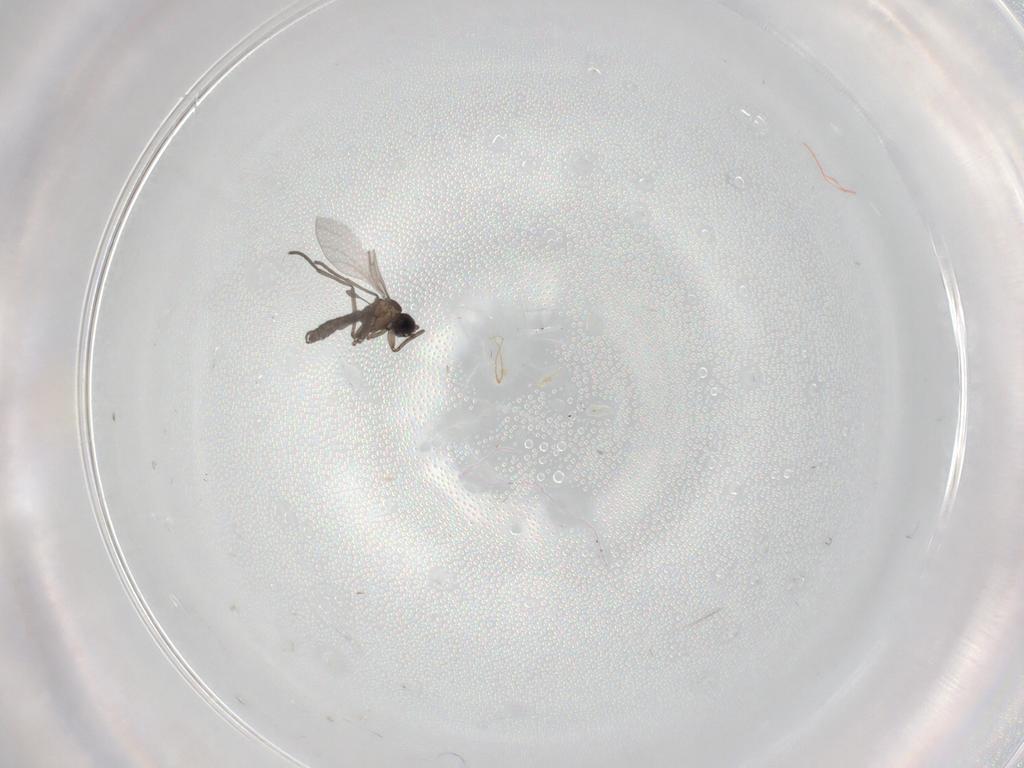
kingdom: Animalia
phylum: Arthropoda
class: Insecta
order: Diptera
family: Sciaridae
